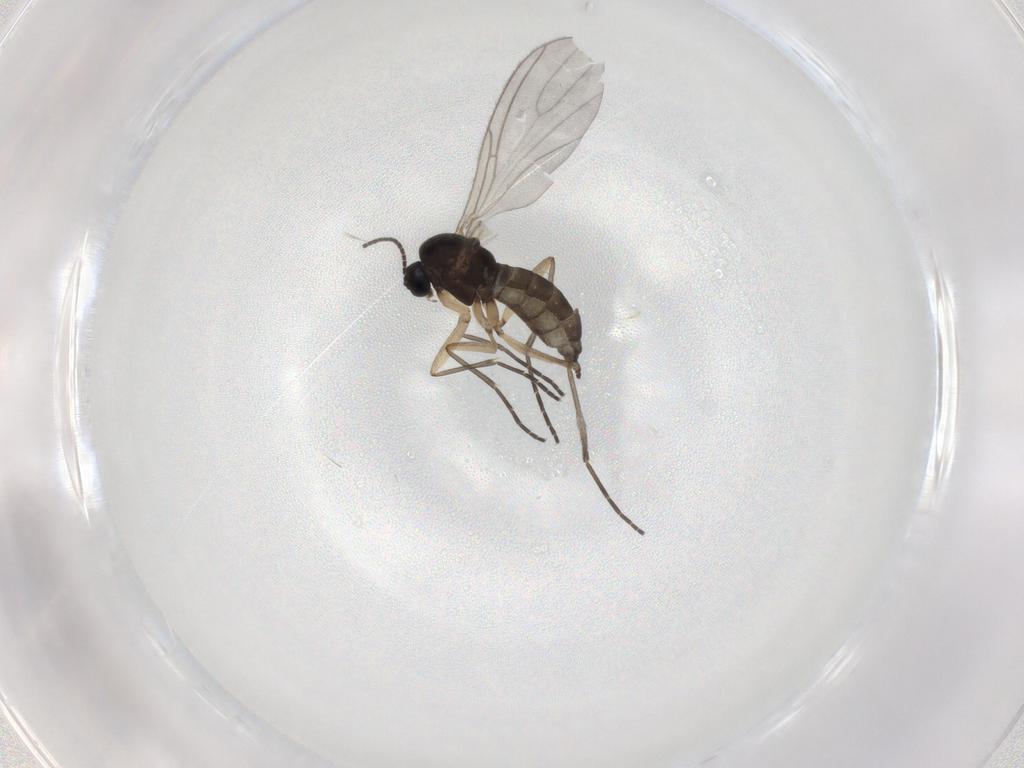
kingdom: Animalia
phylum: Arthropoda
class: Insecta
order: Diptera
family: Sciaridae
